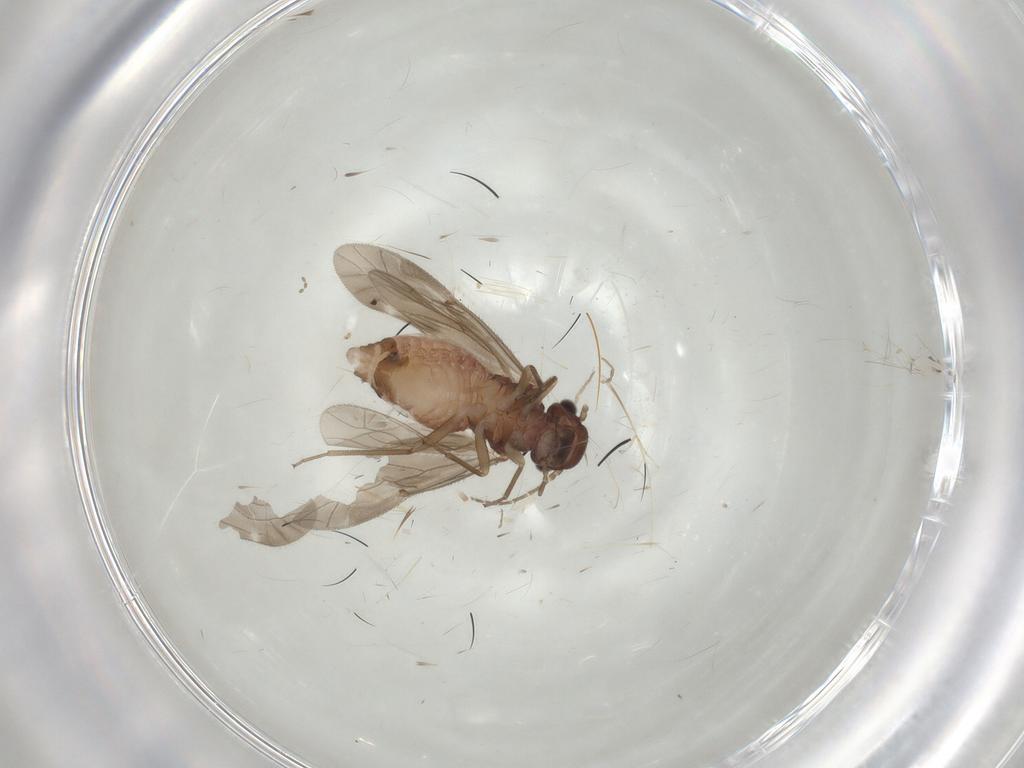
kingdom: Animalia
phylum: Arthropoda
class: Insecta
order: Psocodea
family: Caeciliusidae
